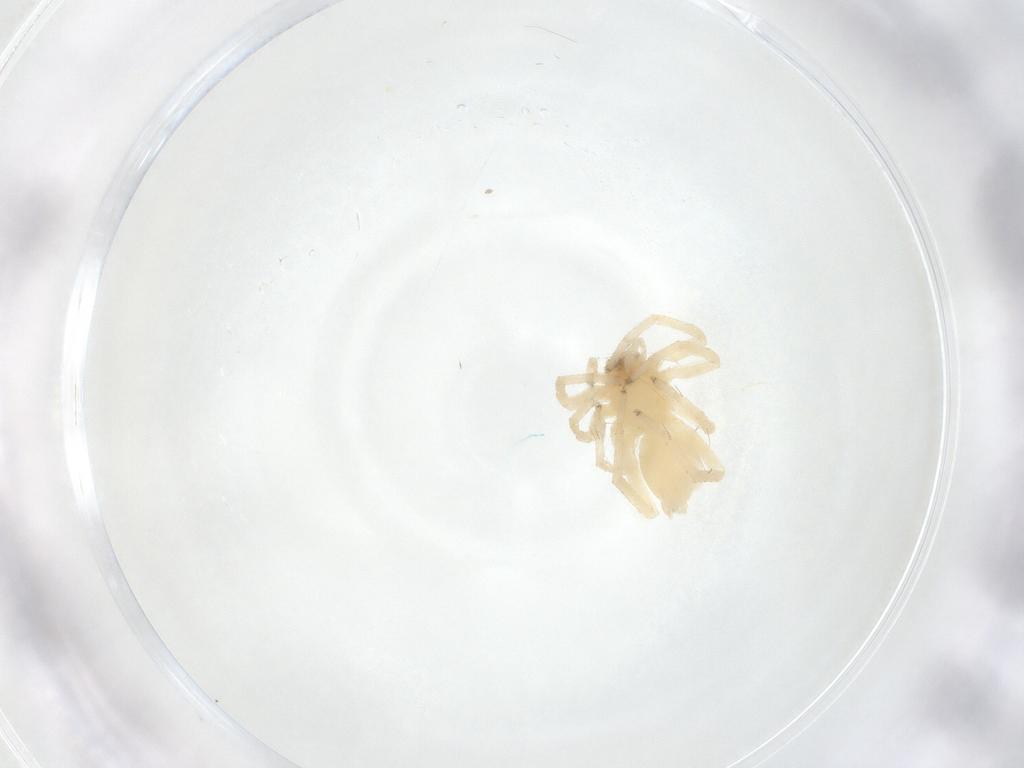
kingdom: Animalia
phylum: Arthropoda
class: Arachnida
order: Araneae
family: Anyphaenidae
